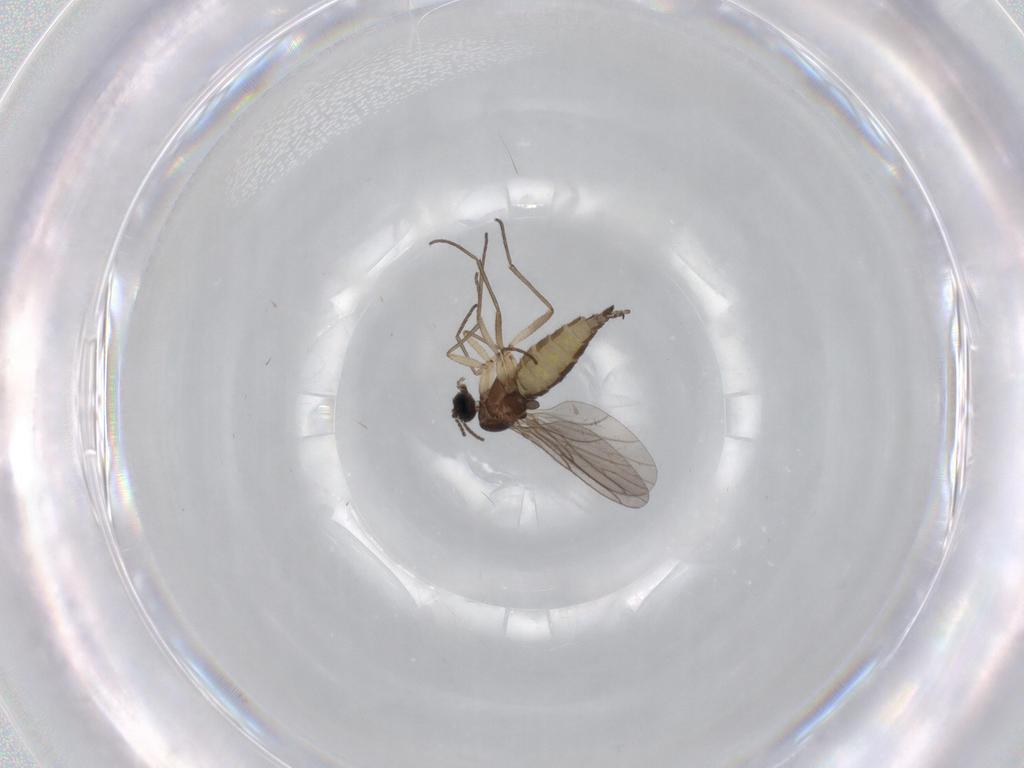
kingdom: Animalia
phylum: Arthropoda
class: Insecta
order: Diptera
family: Sciaridae
